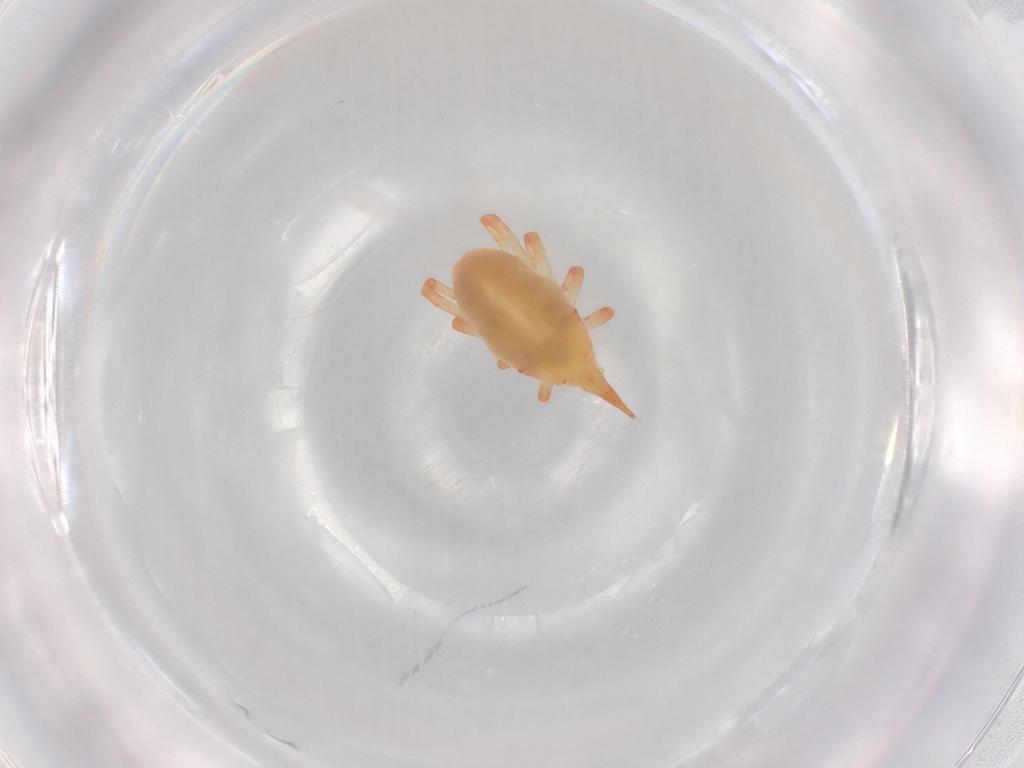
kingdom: Animalia
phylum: Arthropoda
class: Arachnida
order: Trombidiformes
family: Bdellidae
